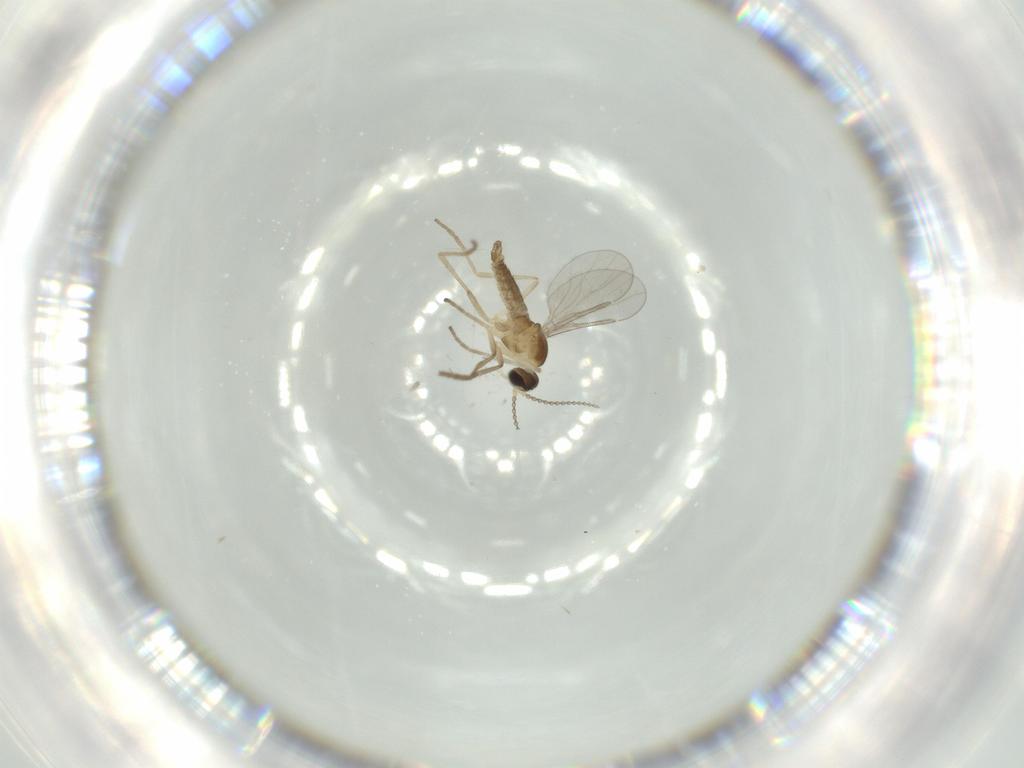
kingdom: Animalia
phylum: Arthropoda
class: Insecta
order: Diptera
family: Cecidomyiidae
